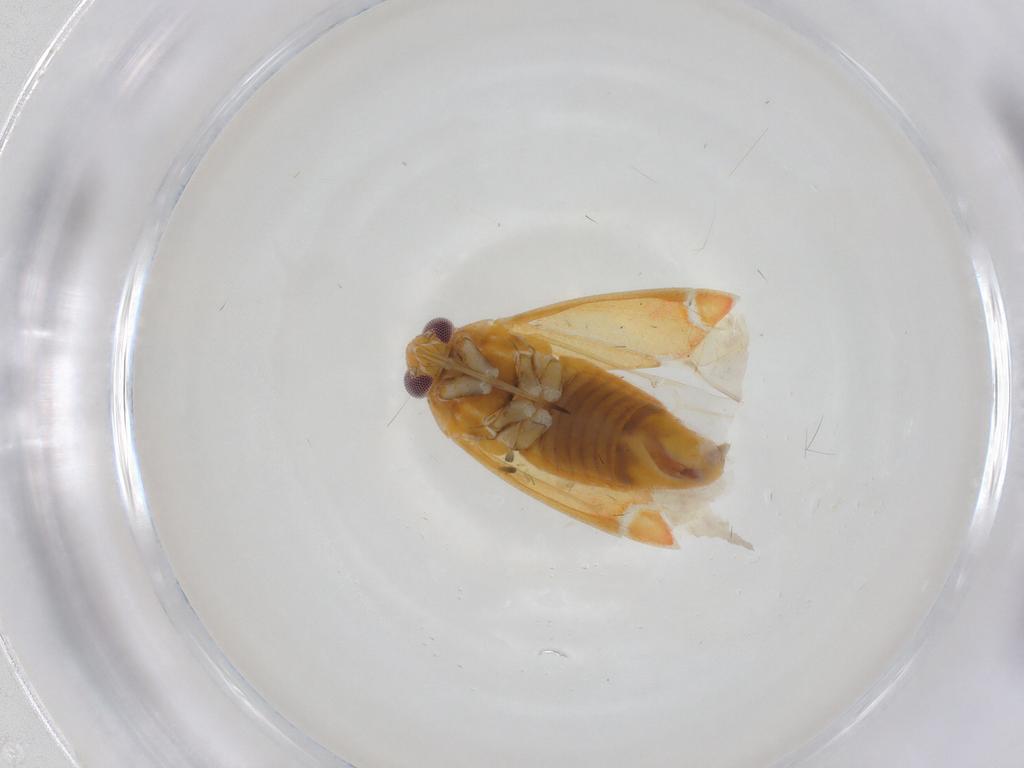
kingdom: Animalia
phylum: Arthropoda
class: Insecta
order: Hemiptera
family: Miridae
